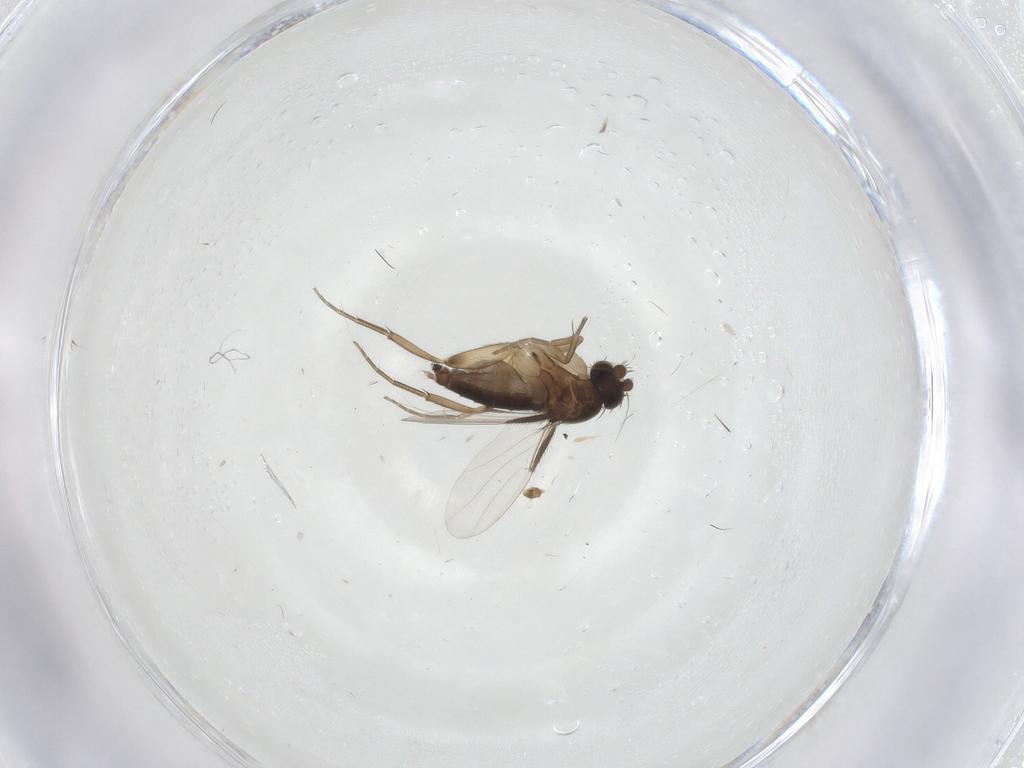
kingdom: Animalia
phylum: Arthropoda
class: Insecta
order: Diptera
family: Phoridae
